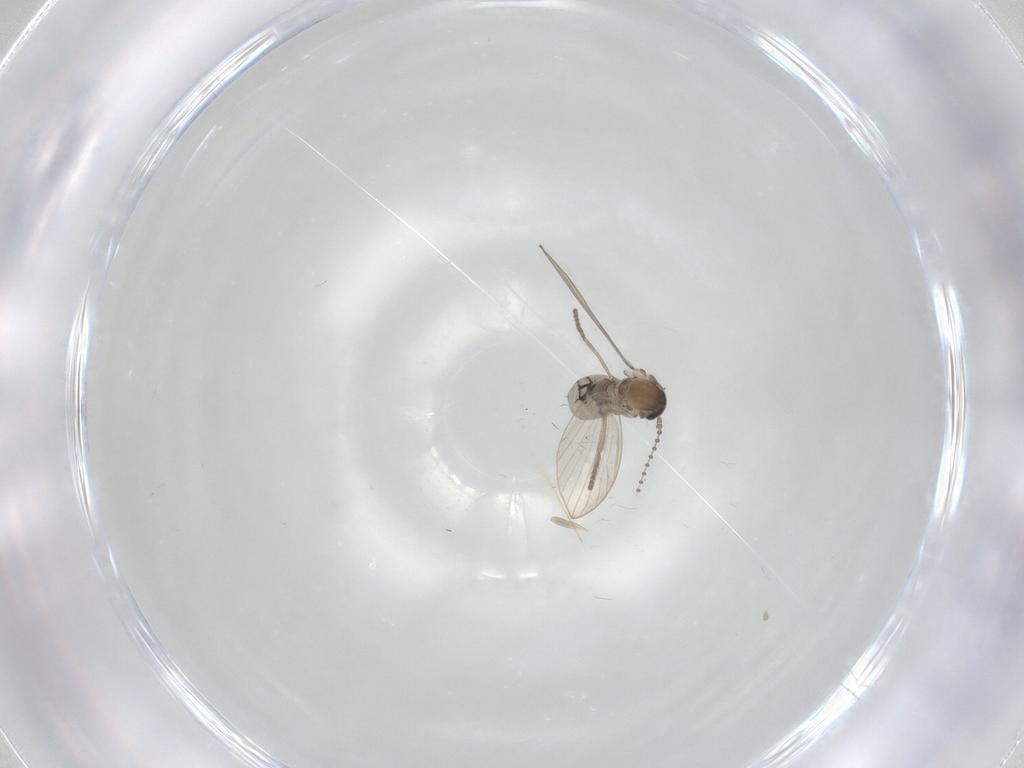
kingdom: Animalia
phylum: Arthropoda
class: Insecta
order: Diptera
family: Psychodidae
